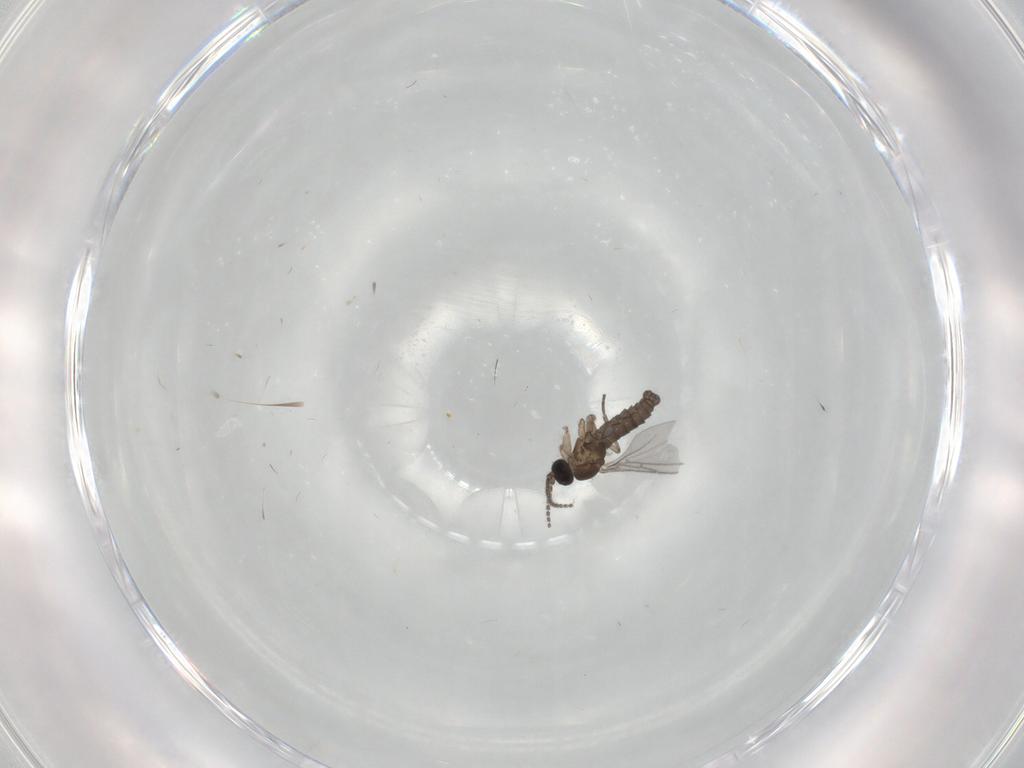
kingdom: Animalia
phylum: Arthropoda
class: Insecta
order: Diptera
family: Sciaridae
